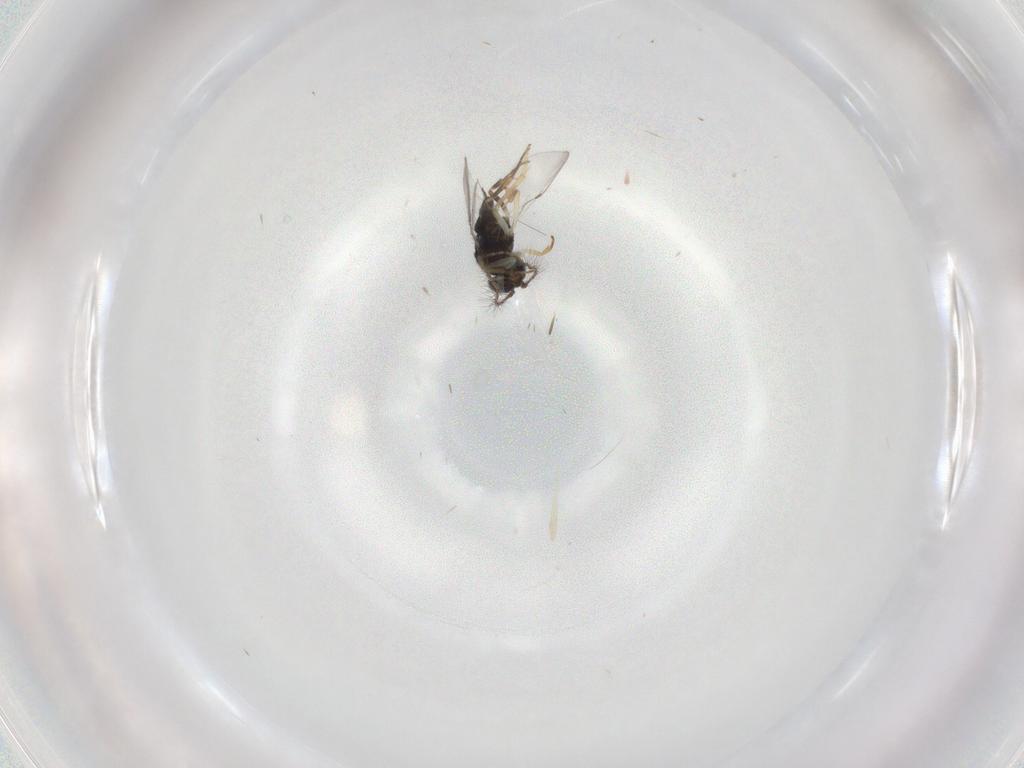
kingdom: Animalia
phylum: Arthropoda
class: Insecta
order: Hymenoptera
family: Encyrtidae
